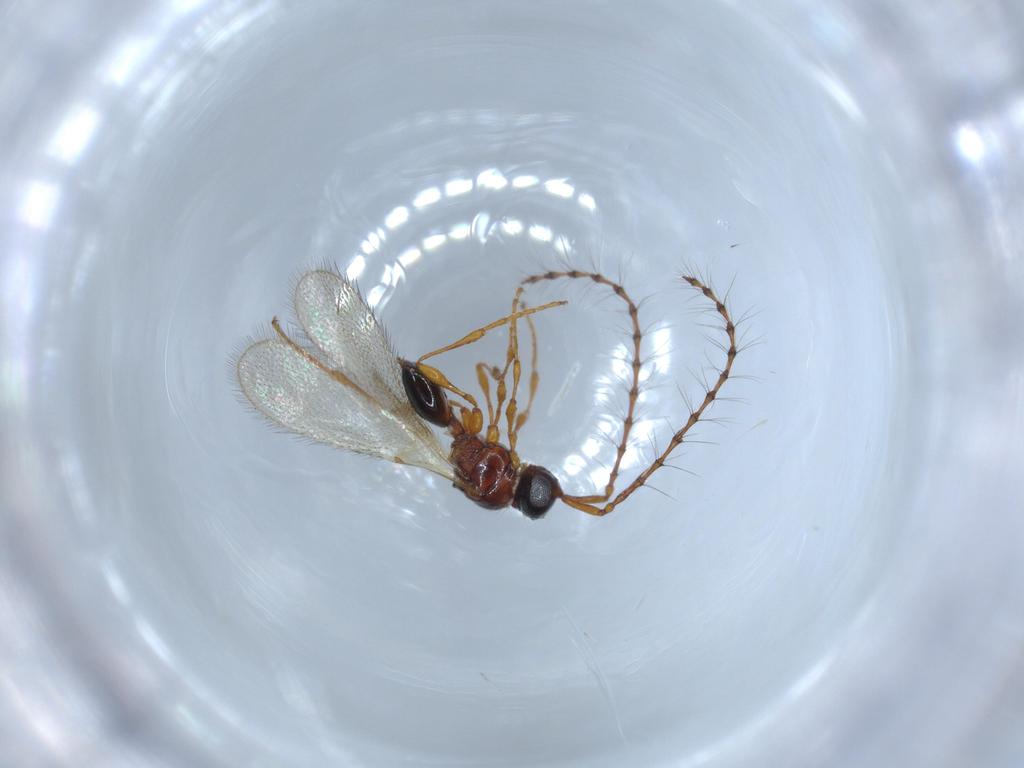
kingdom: Animalia
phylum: Arthropoda
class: Insecta
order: Hymenoptera
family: Diapriidae
